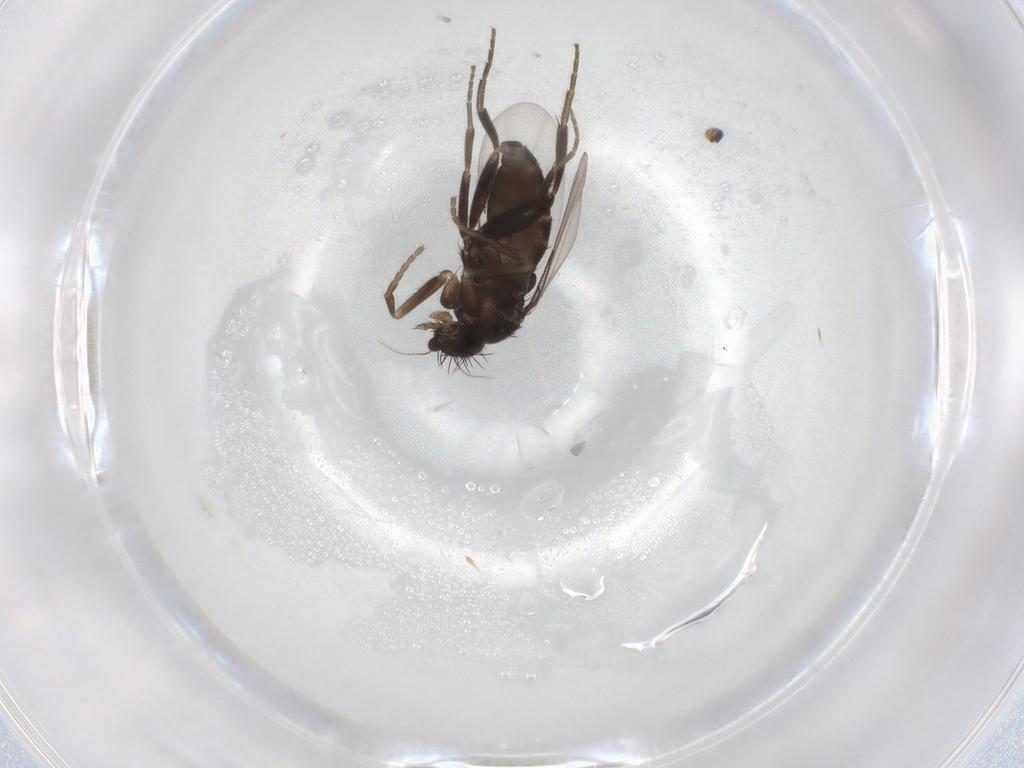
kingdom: Animalia
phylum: Arthropoda
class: Insecta
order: Diptera
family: Phoridae
